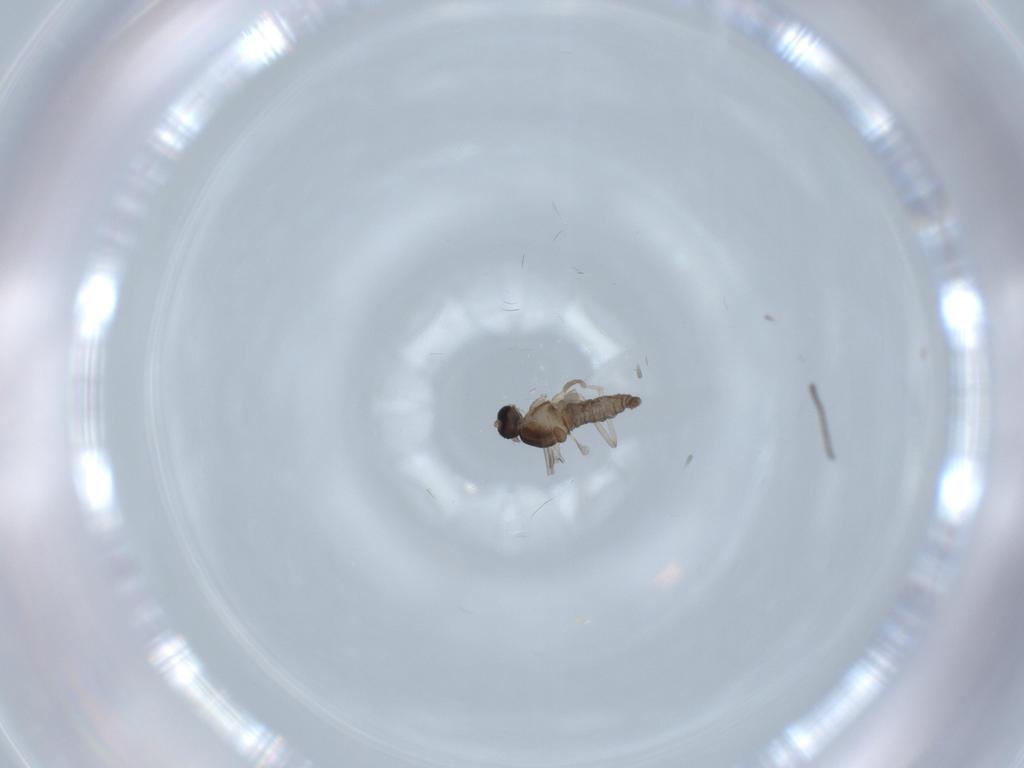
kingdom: Animalia
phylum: Arthropoda
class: Insecta
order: Diptera
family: Cecidomyiidae
